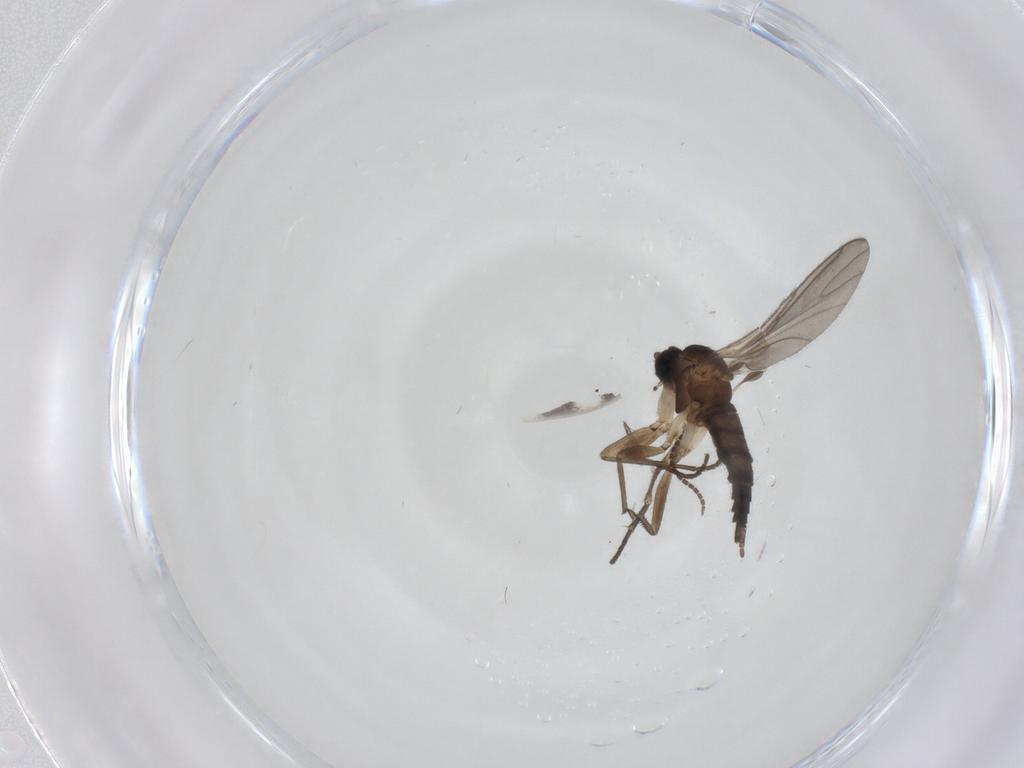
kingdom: Animalia
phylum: Arthropoda
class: Insecta
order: Diptera
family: Sciaridae
